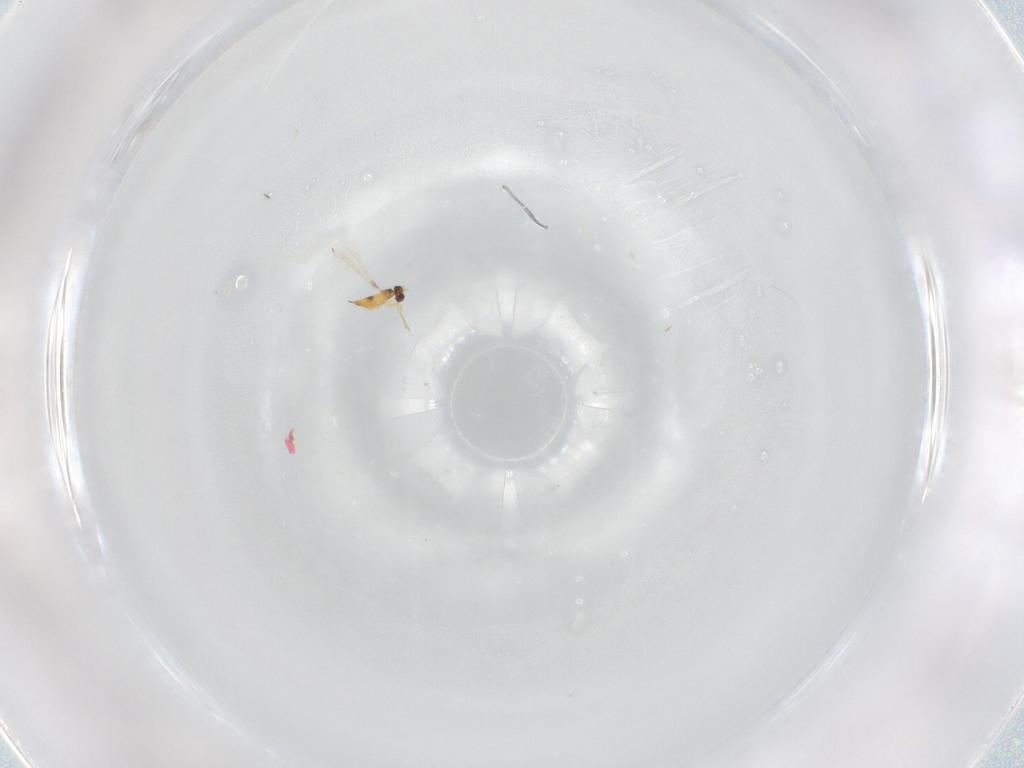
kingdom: Animalia
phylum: Arthropoda
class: Insecta
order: Hymenoptera
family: Mymaridae
